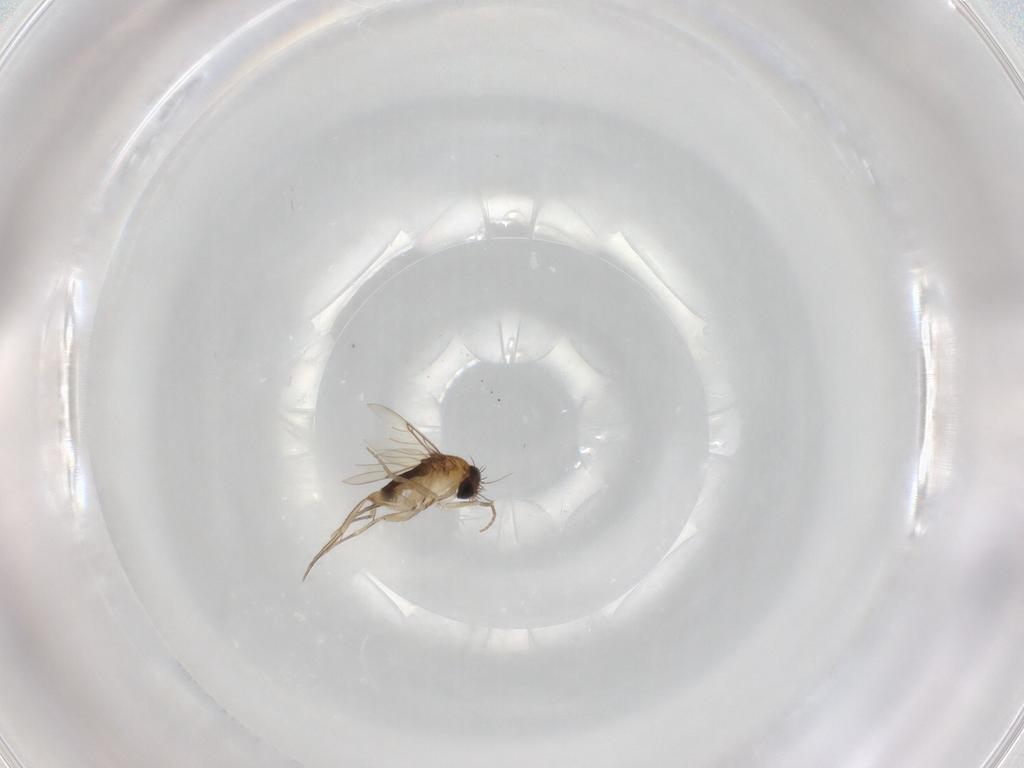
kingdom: Animalia
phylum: Arthropoda
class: Insecta
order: Diptera
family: Phoridae
